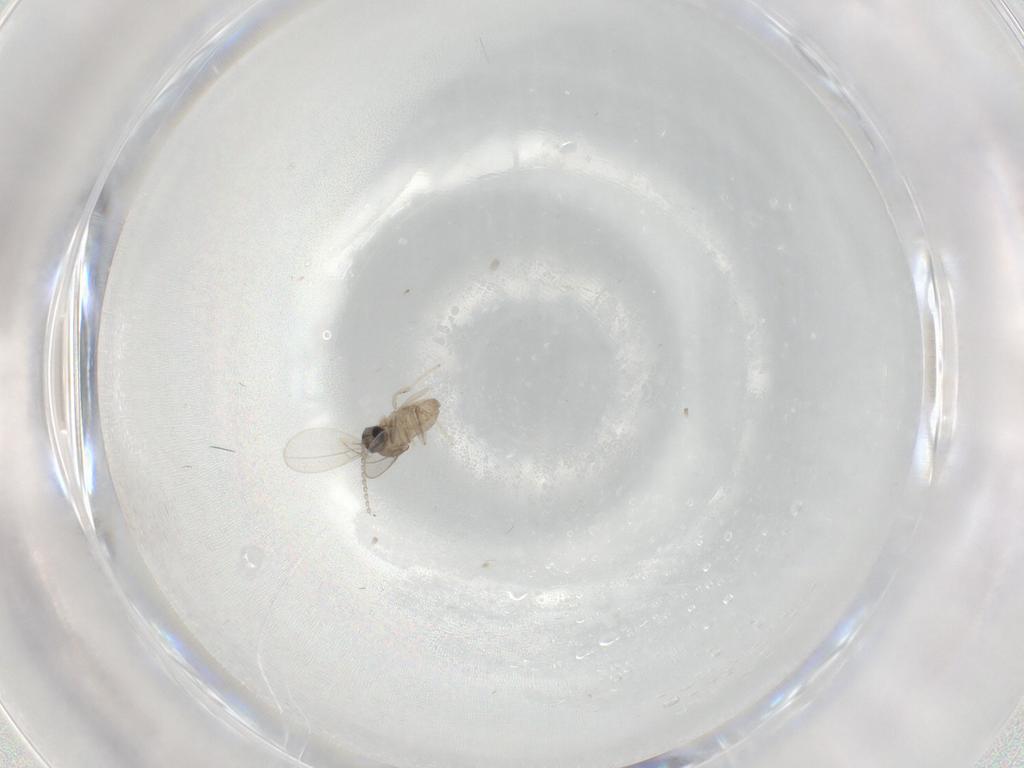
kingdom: Animalia
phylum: Arthropoda
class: Insecta
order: Diptera
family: Cecidomyiidae
